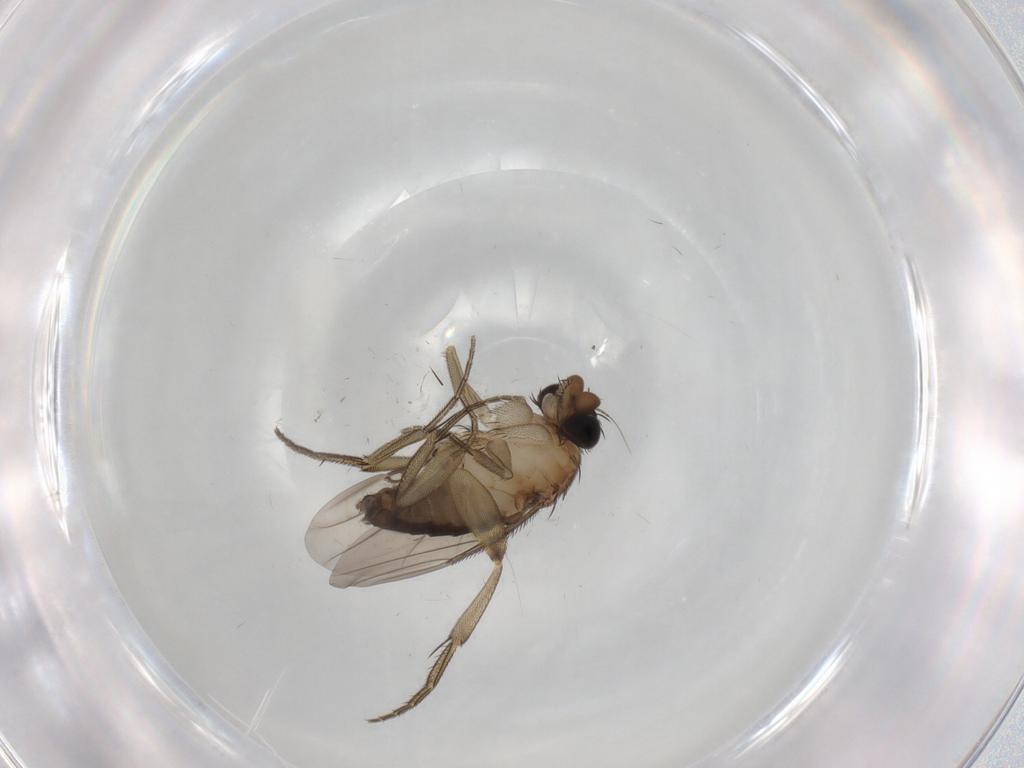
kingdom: Animalia
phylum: Arthropoda
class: Insecta
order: Diptera
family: Phoridae
